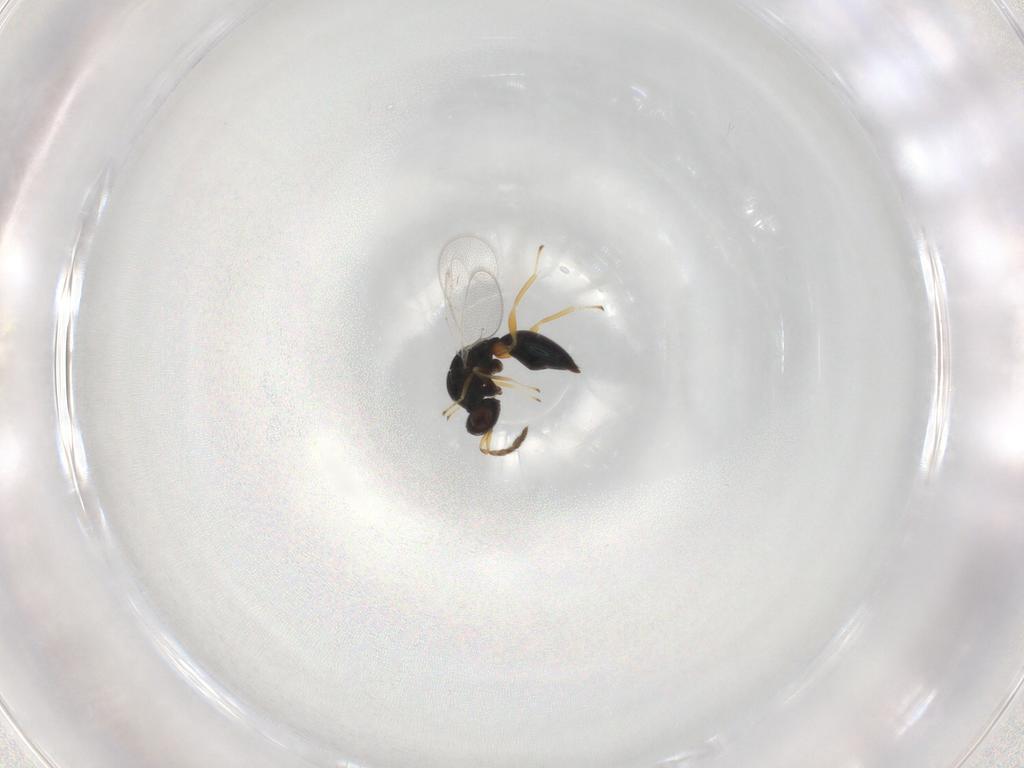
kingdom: Animalia
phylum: Arthropoda
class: Insecta
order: Hymenoptera
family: Eulophidae
